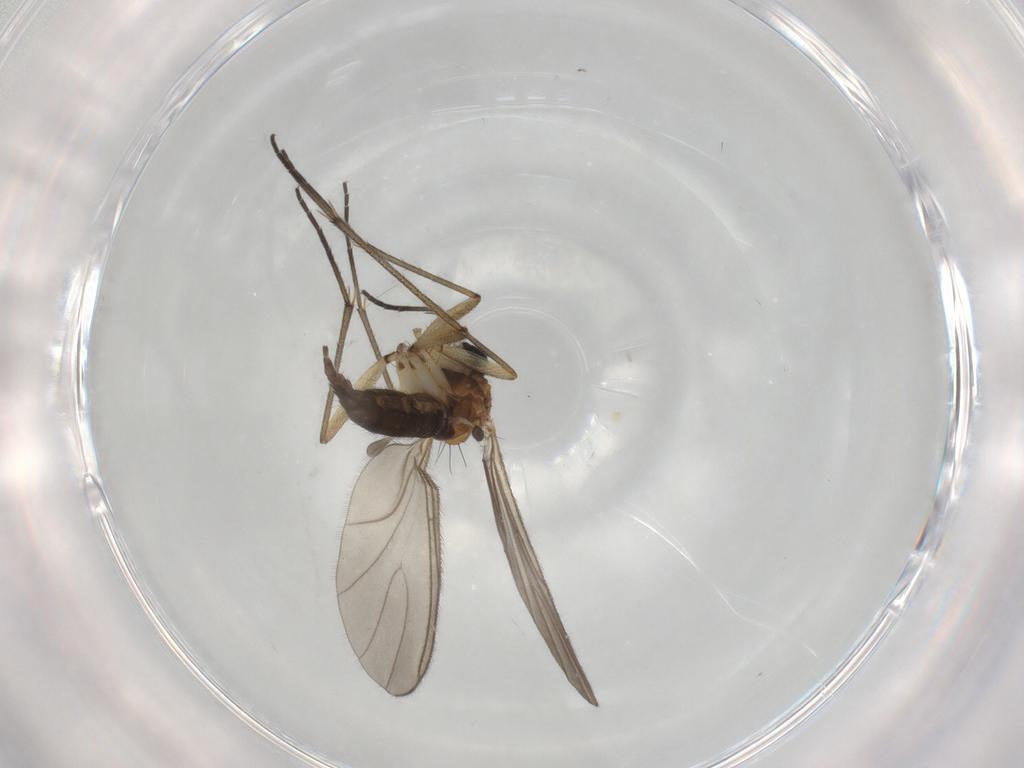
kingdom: Animalia
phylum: Arthropoda
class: Insecta
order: Diptera
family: Sciaridae
